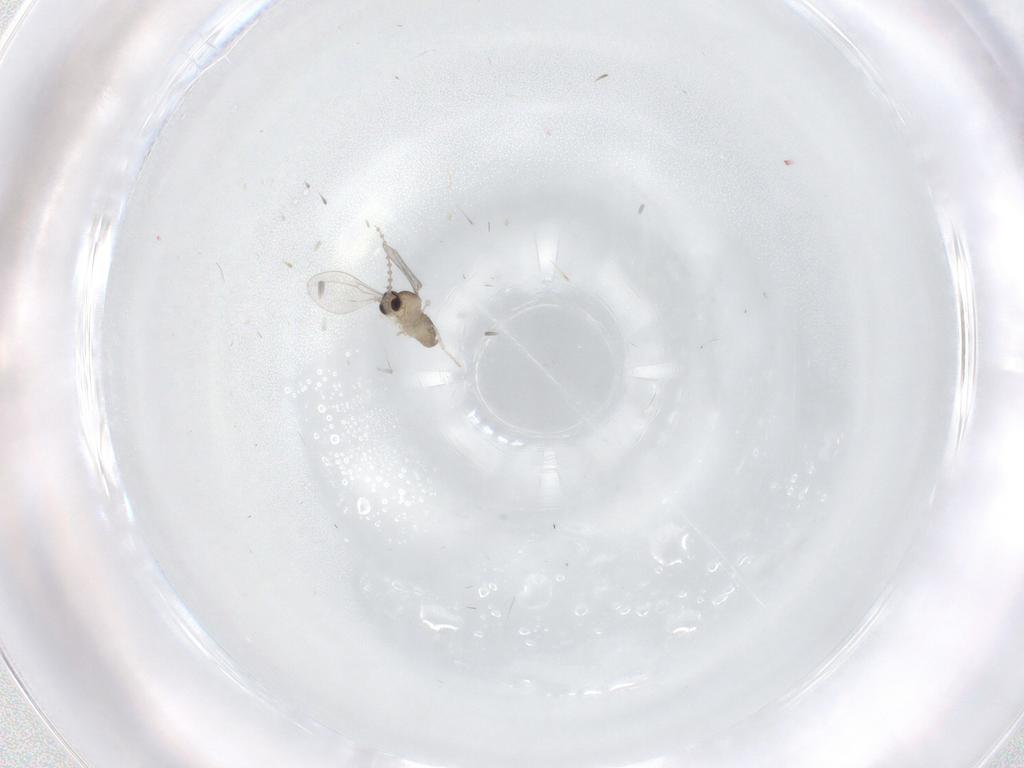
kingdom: Animalia
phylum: Arthropoda
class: Insecta
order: Diptera
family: Cecidomyiidae
